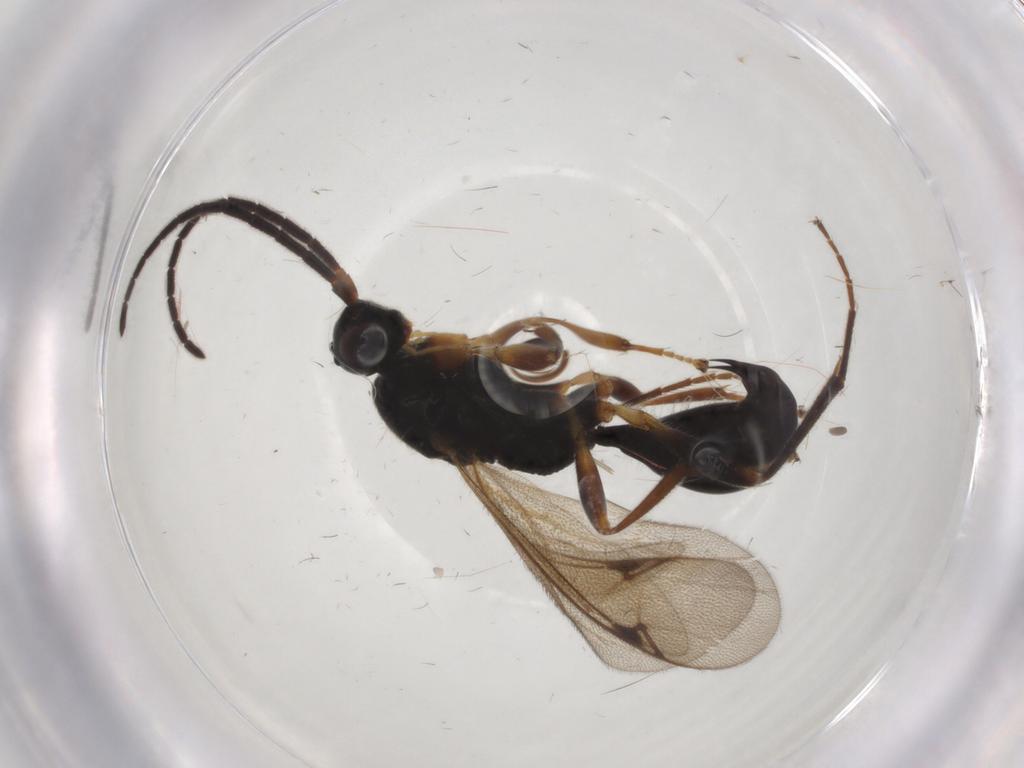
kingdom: Animalia
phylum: Arthropoda
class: Insecta
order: Hymenoptera
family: Proctotrupidae
